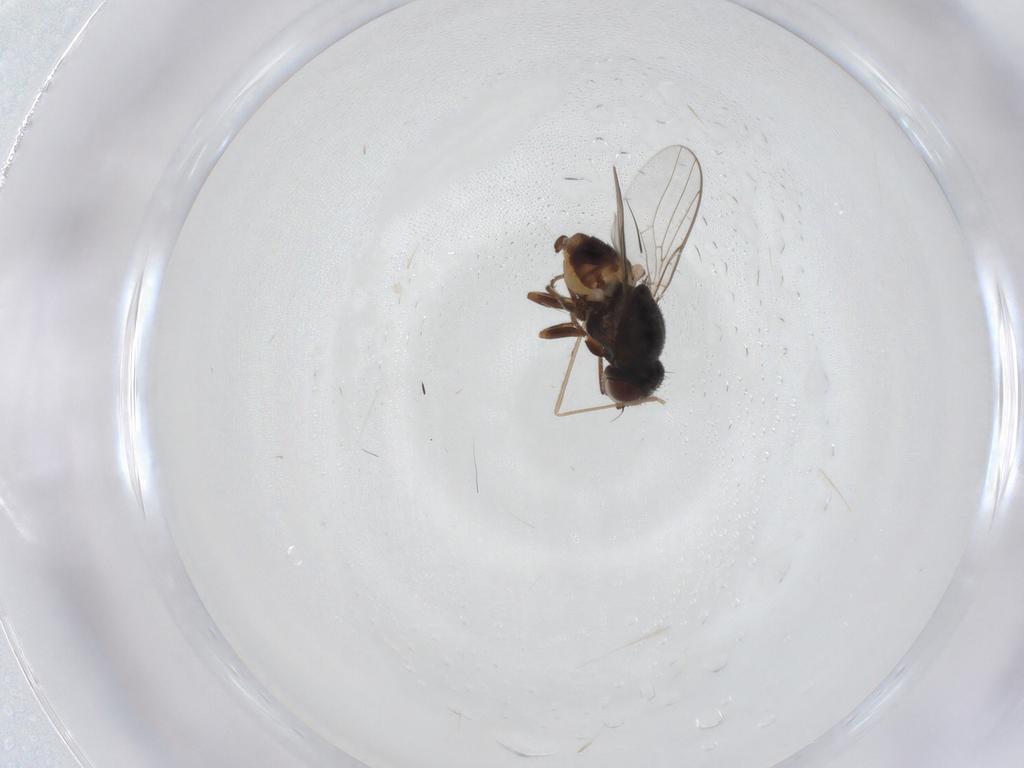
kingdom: Animalia
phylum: Arthropoda
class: Insecta
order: Diptera
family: Chloropidae
